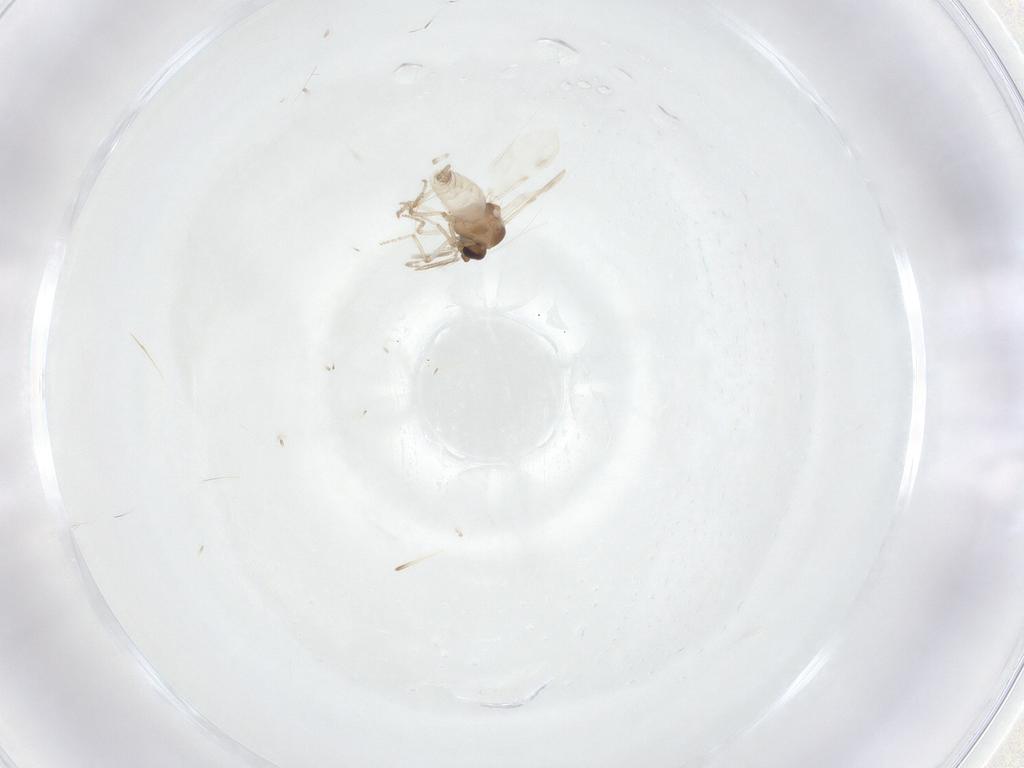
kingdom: Animalia
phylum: Arthropoda
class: Insecta
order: Diptera
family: Ceratopogonidae
